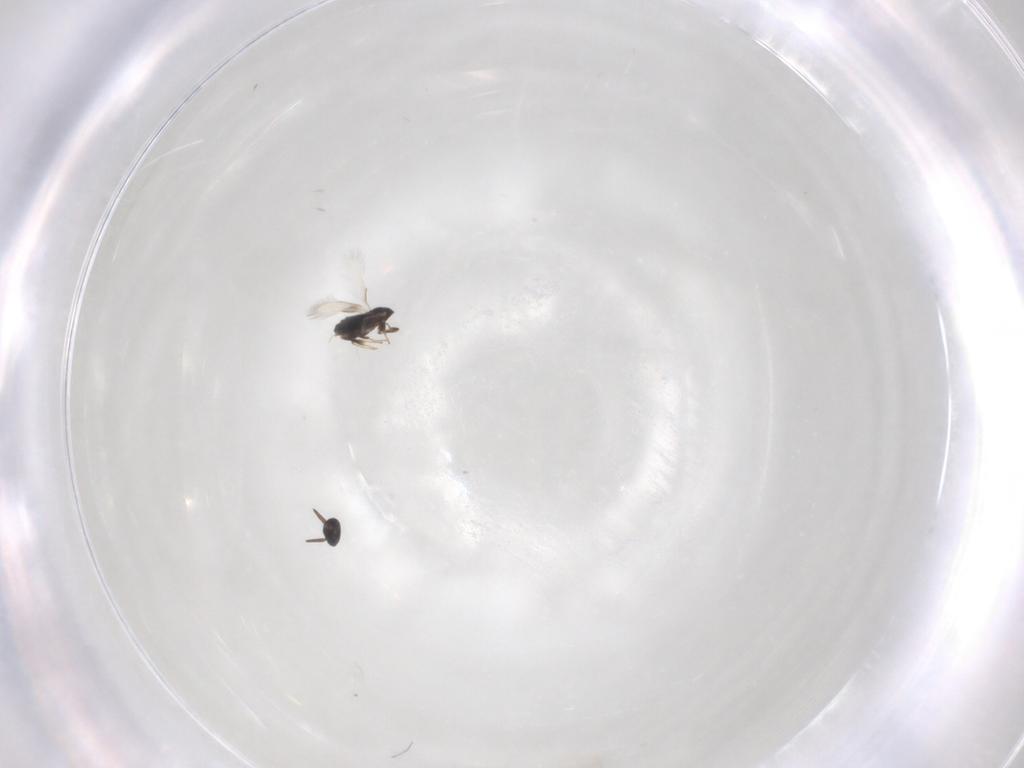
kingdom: Animalia
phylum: Arthropoda
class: Insecta
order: Hymenoptera
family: Signiphoridae
